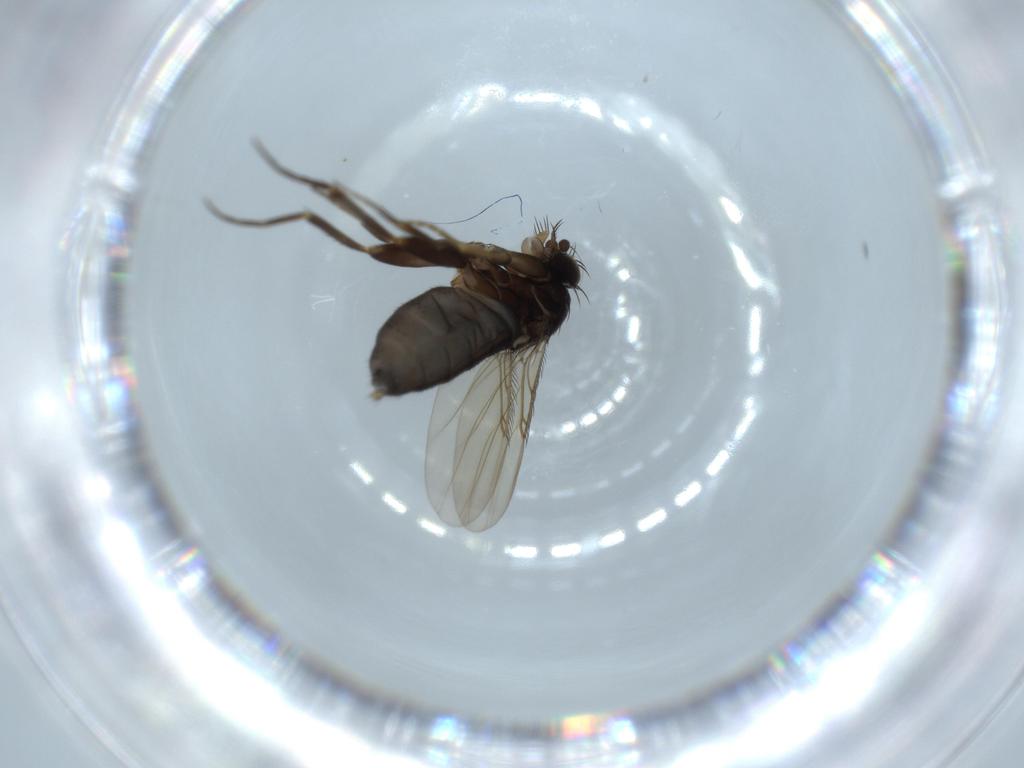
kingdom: Animalia
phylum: Arthropoda
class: Insecta
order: Diptera
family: Phoridae
